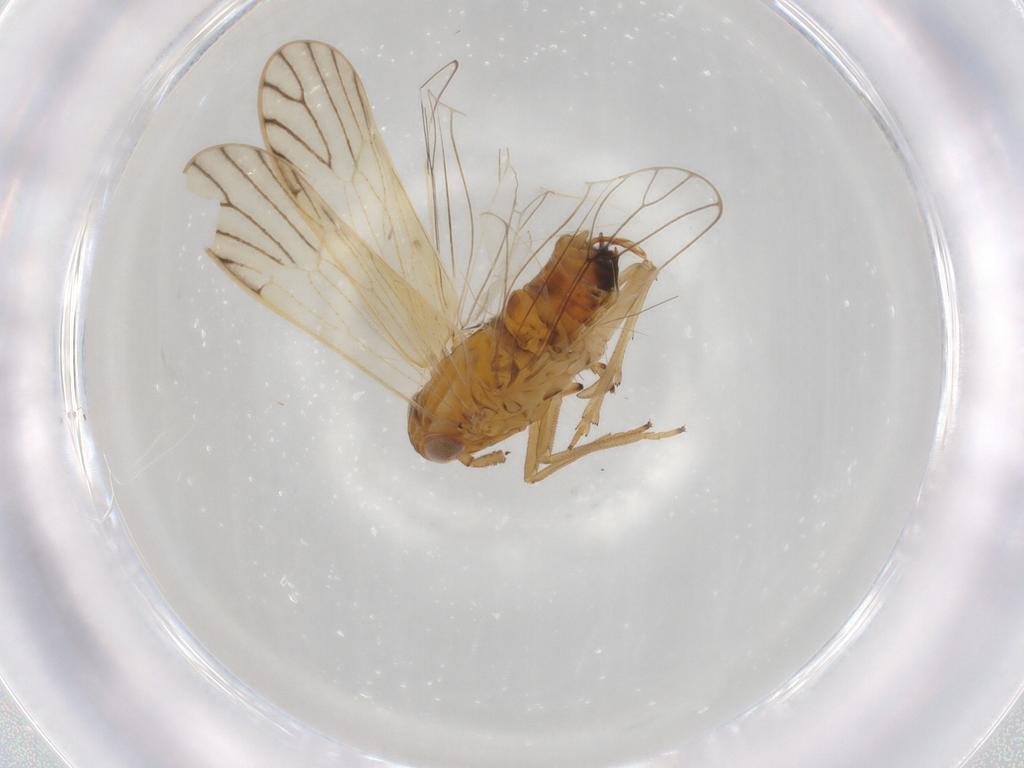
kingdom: Animalia
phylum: Arthropoda
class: Insecta
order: Hemiptera
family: Delphacidae
